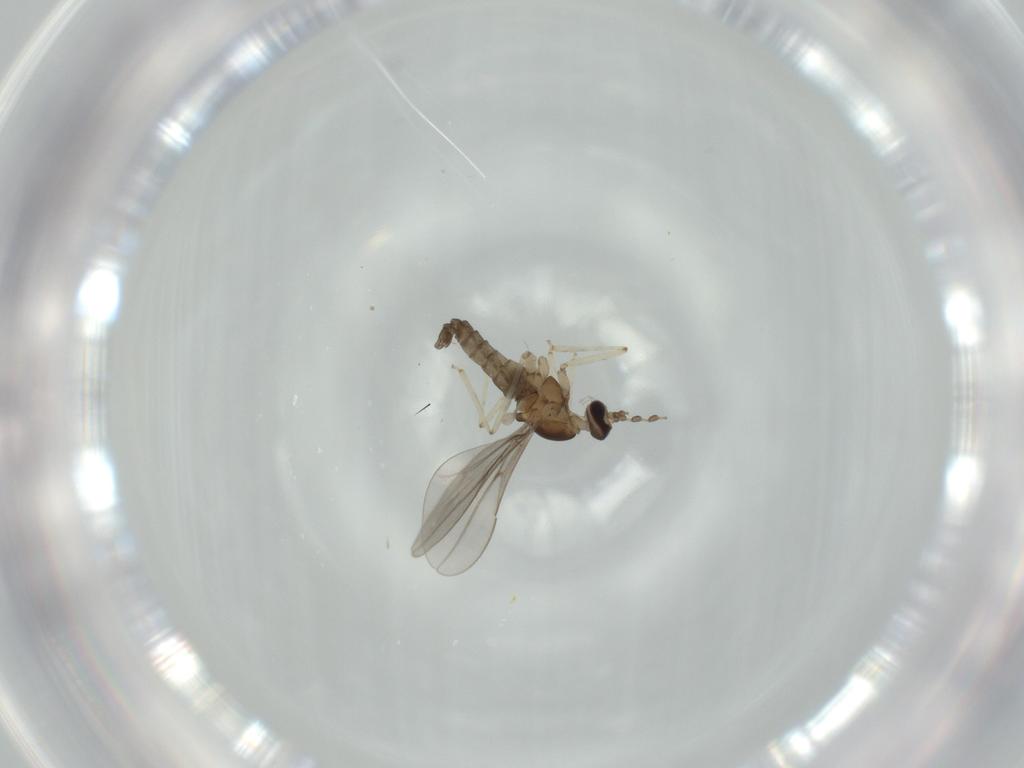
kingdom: Animalia
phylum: Arthropoda
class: Insecta
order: Diptera
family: Cecidomyiidae
